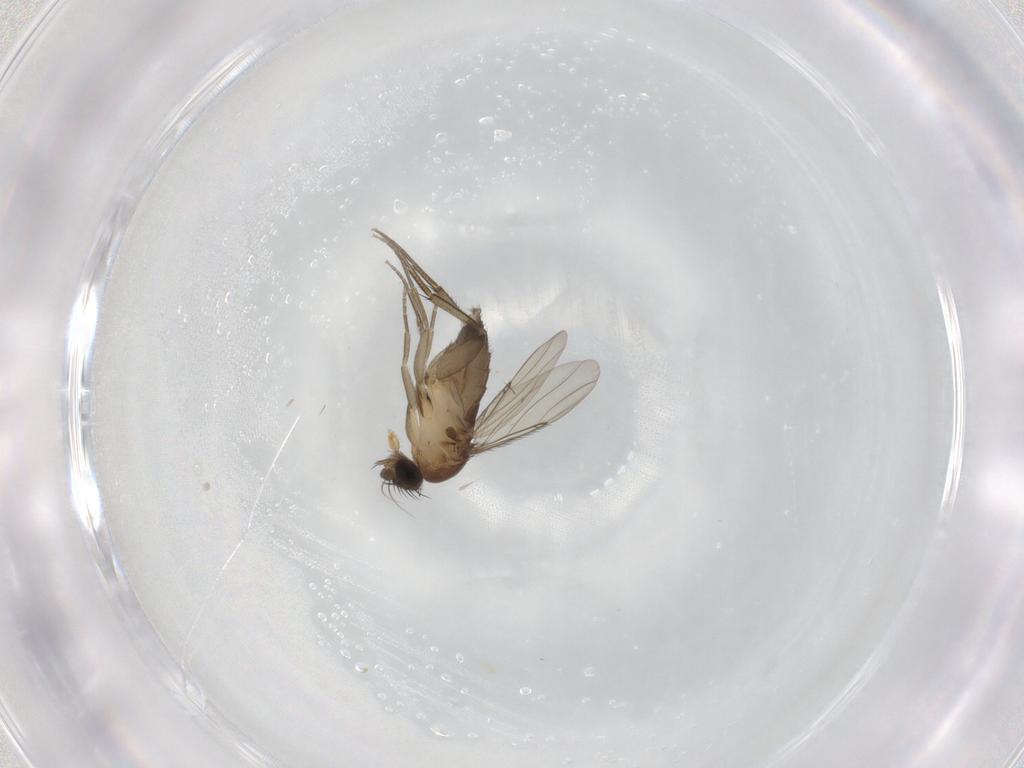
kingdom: Animalia
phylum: Arthropoda
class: Insecta
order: Diptera
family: Phoridae
